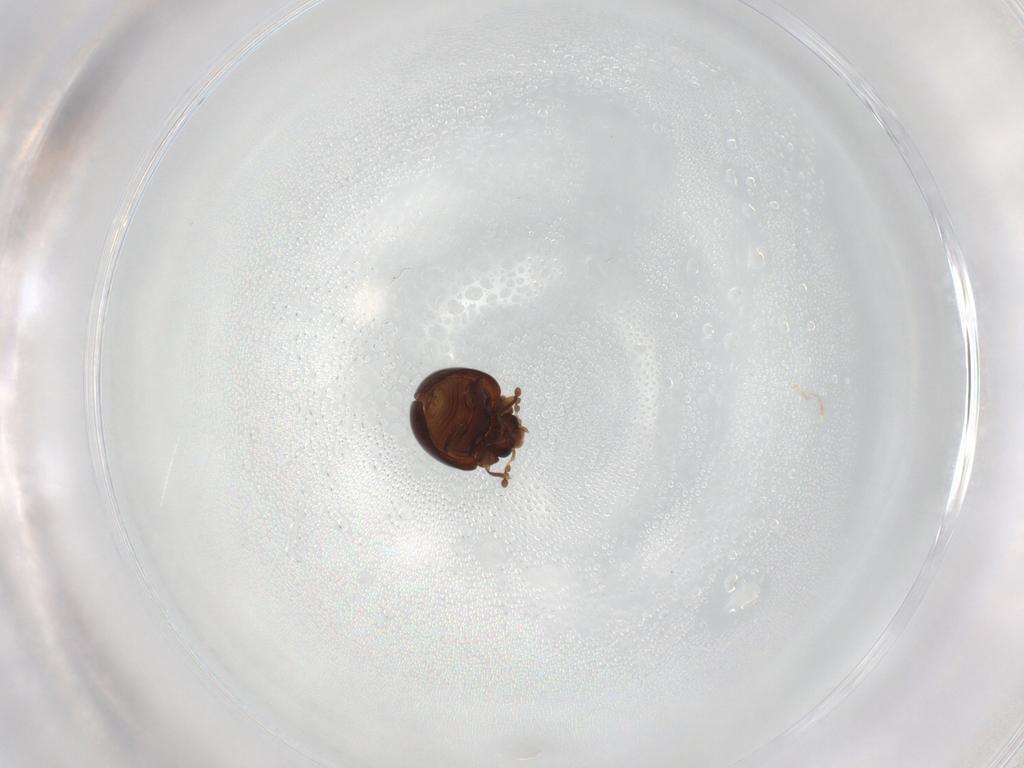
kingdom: Animalia
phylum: Arthropoda
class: Insecta
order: Coleoptera
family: Anamorphidae
